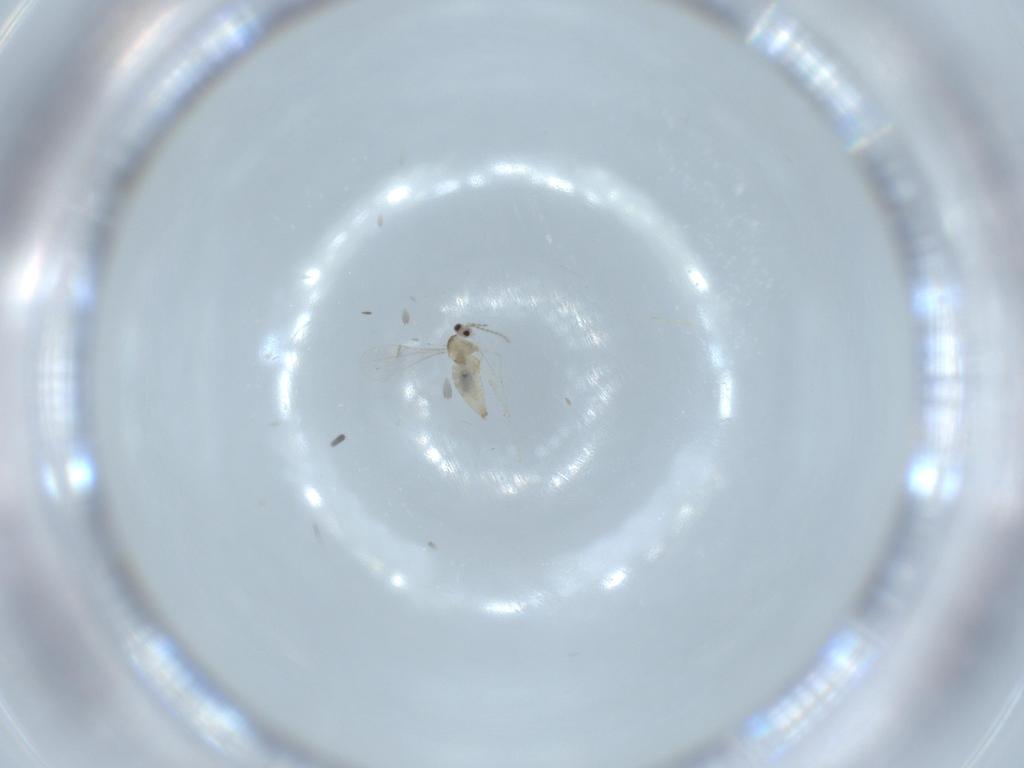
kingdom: Animalia
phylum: Arthropoda
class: Insecta
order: Diptera
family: Cecidomyiidae
